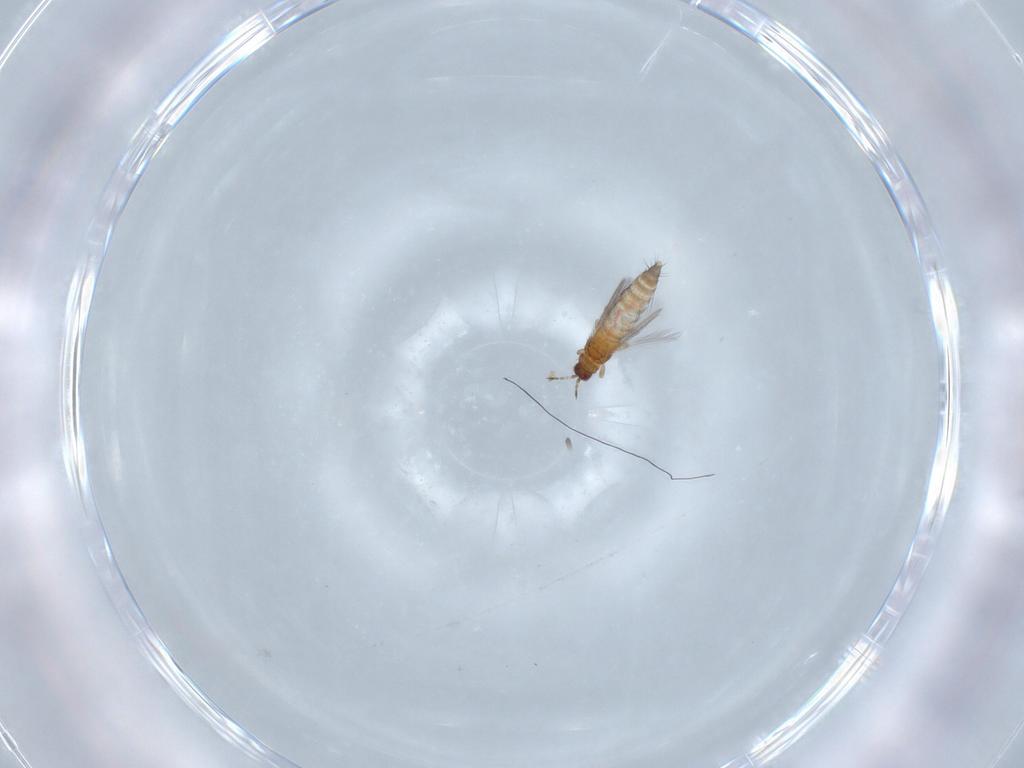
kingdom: Animalia
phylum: Arthropoda
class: Insecta
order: Thysanoptera
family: Thripidae
